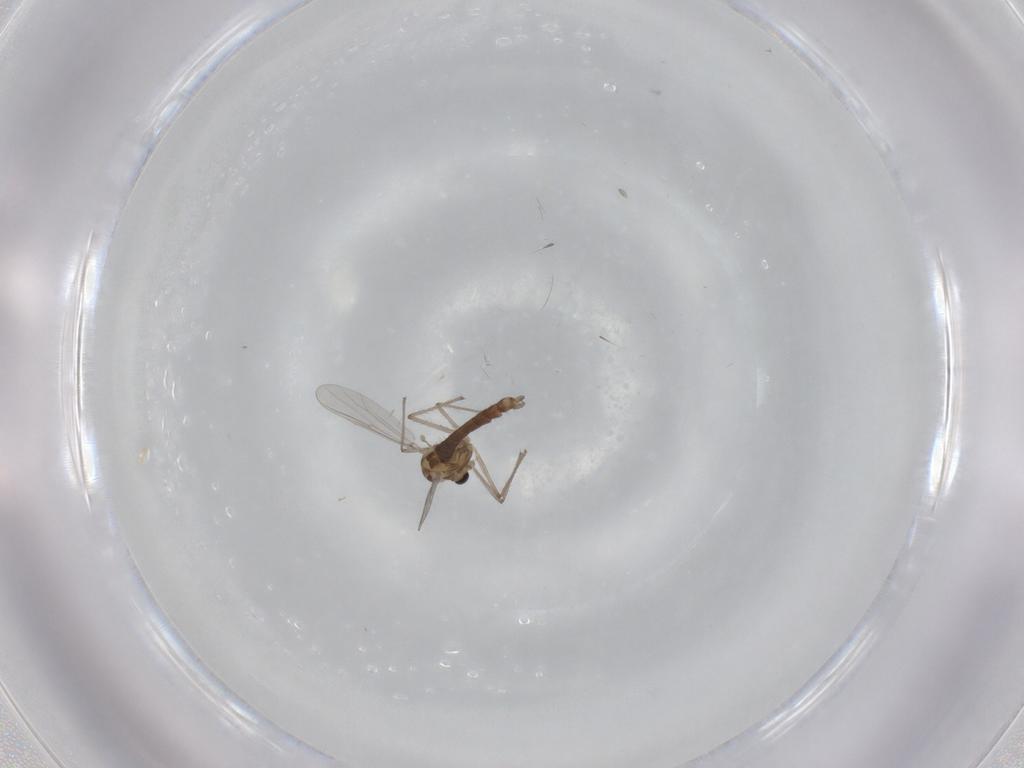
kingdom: Animalia
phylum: Arthropoda
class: Insecta
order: Diptera
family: Chironomidae
